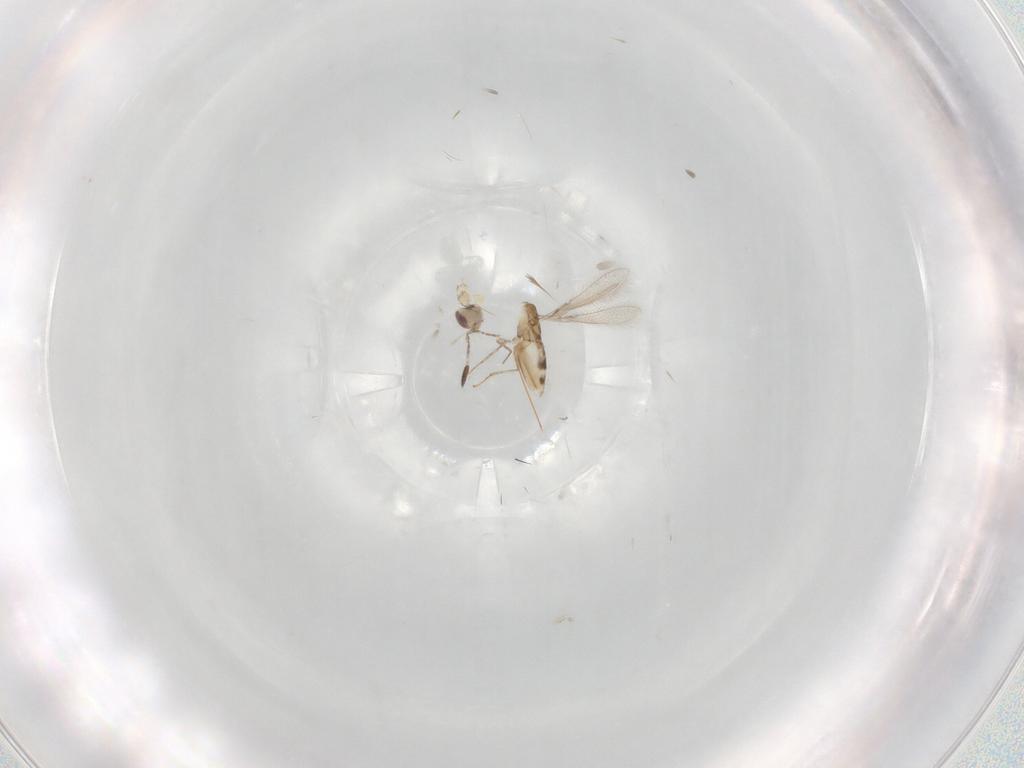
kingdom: Animalia
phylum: Arthropoda
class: Insecta
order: Hymenoptera
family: Mymaridae
